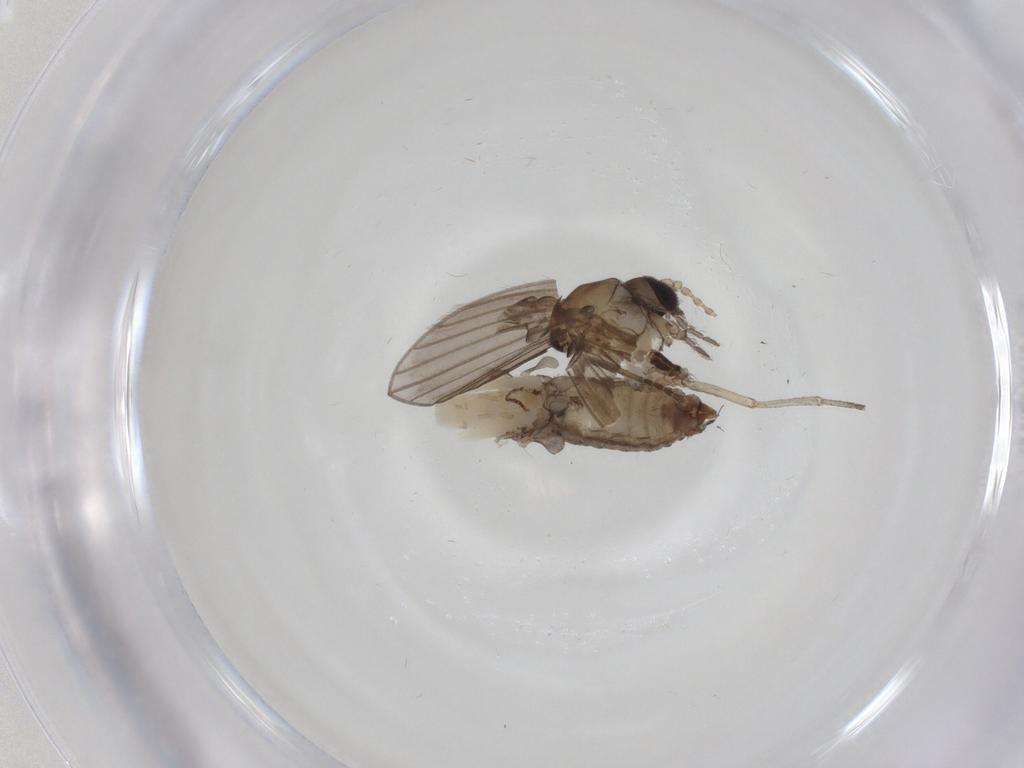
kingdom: Animalia
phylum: Arthropoda
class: Insecta
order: Diptera
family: Psychodidae
